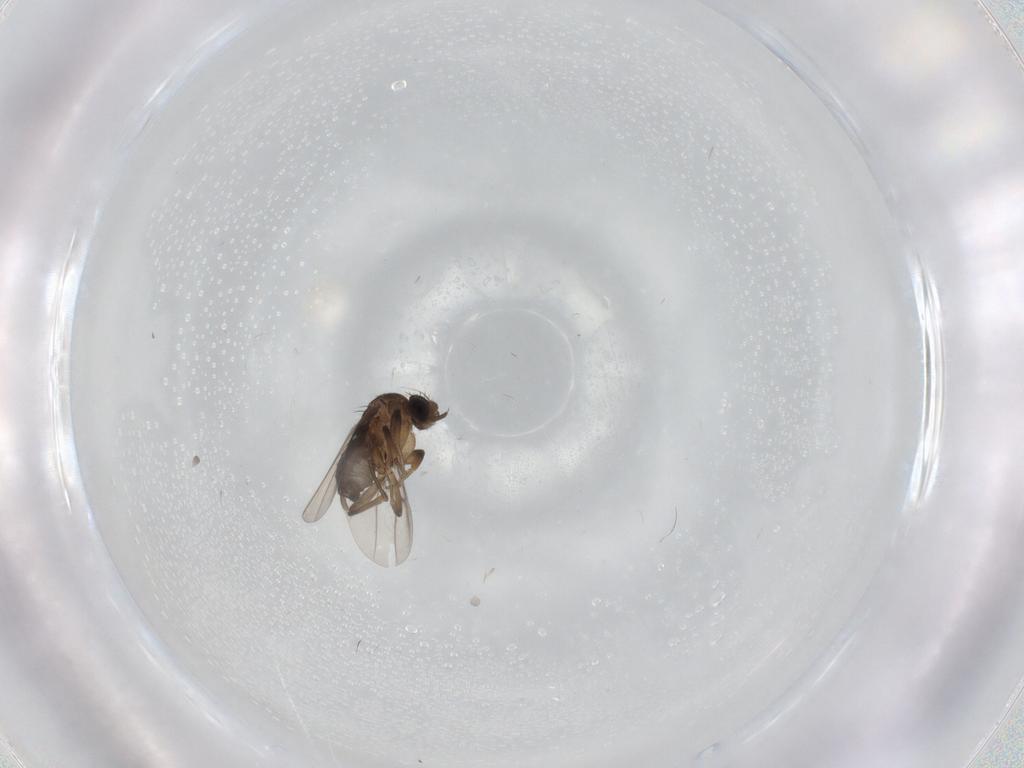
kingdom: Animalia
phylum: Arthropoda
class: Insecta
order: Diptera
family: Phoridae
